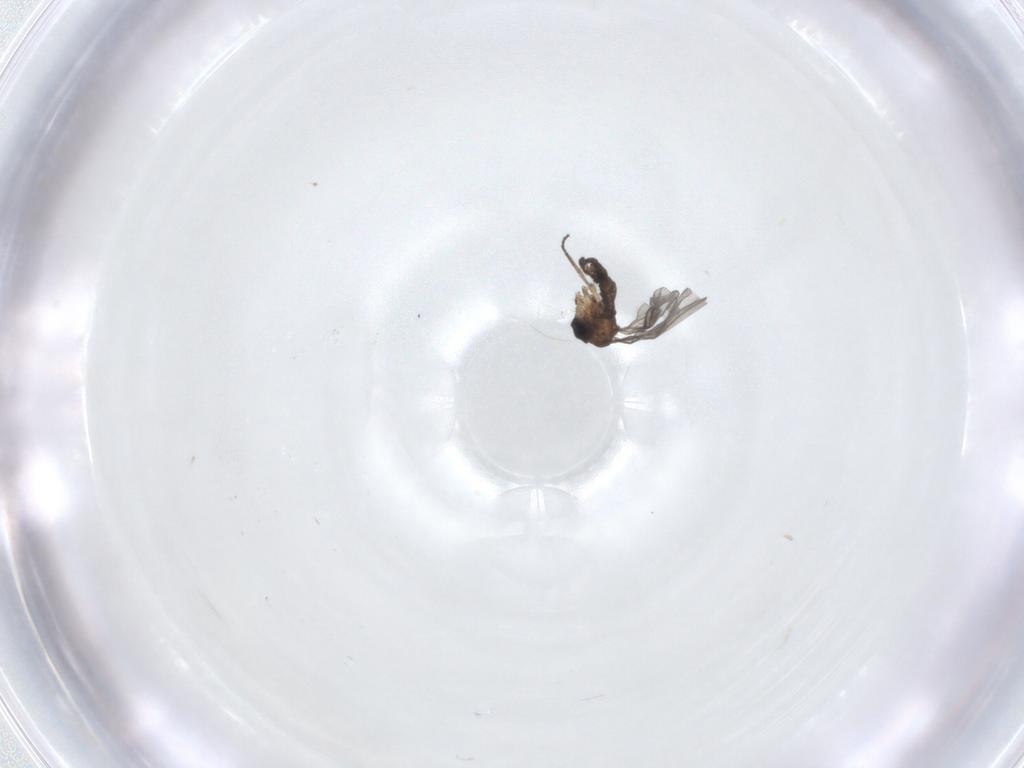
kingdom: Animalia
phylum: Arthropoda
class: Insecta
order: Diptera
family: Sciaridae
